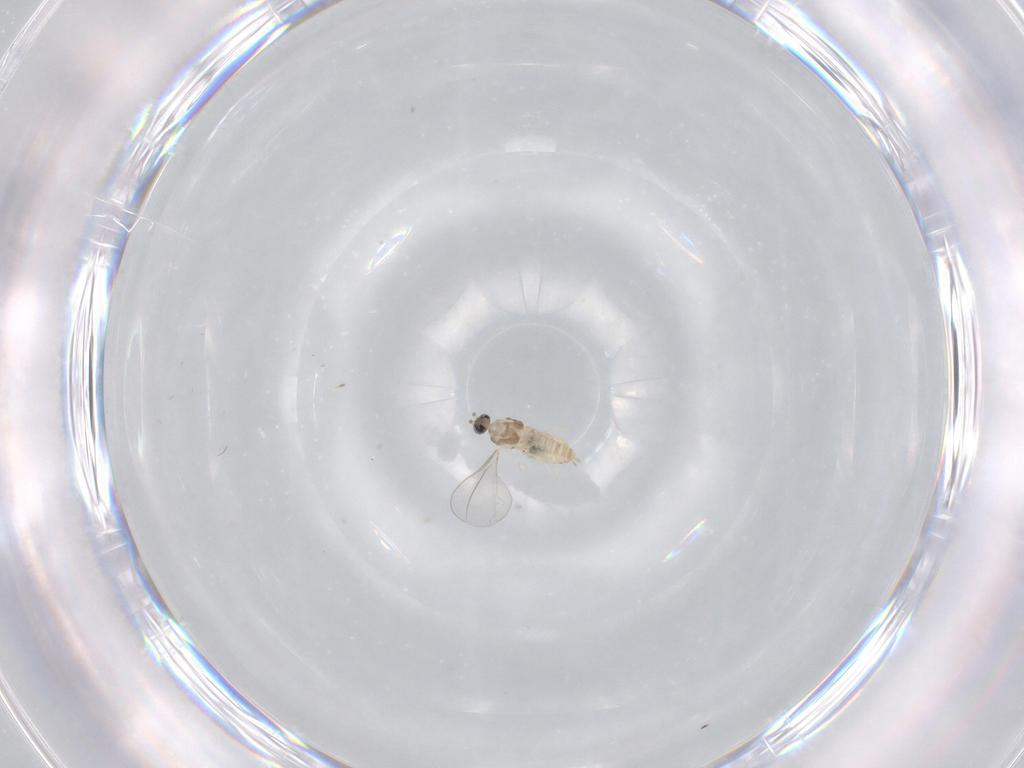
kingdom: Animalia
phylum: Arthropoda
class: Insecta
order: Diptera
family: Cecidomyiidae
